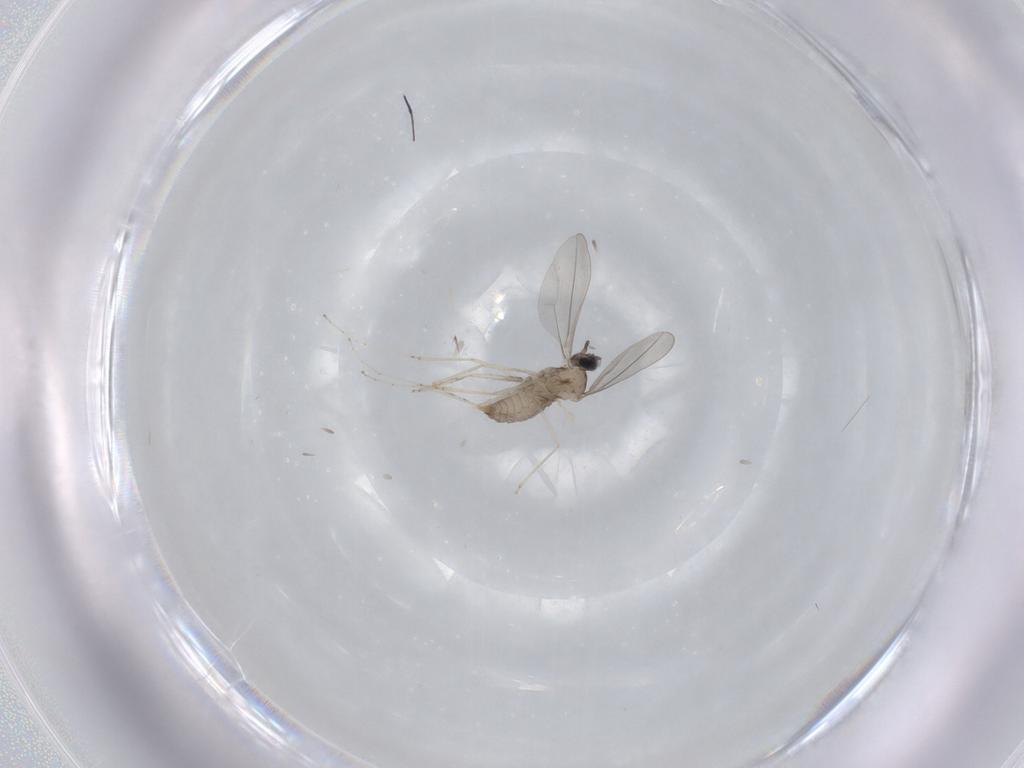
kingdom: Animalia
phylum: Arthropoda
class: Insecta
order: Diptera
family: Cecidomyiidae
